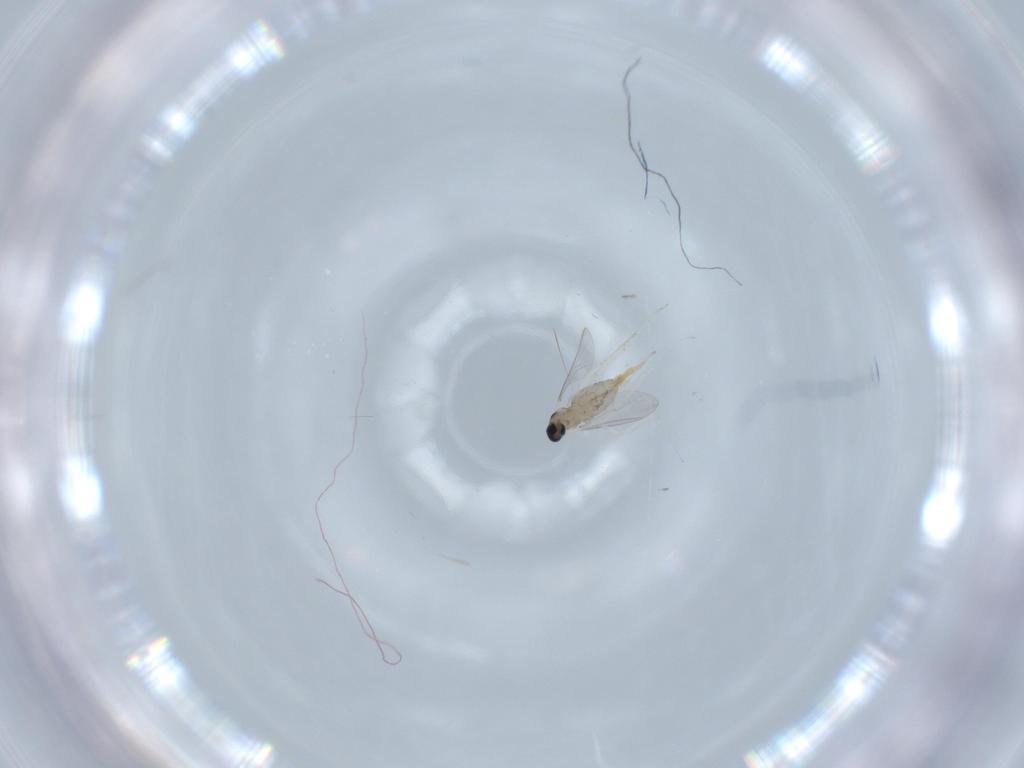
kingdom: Animalia
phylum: Arthropoda
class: Insecta
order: Diptera
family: Cecidomyiidae
